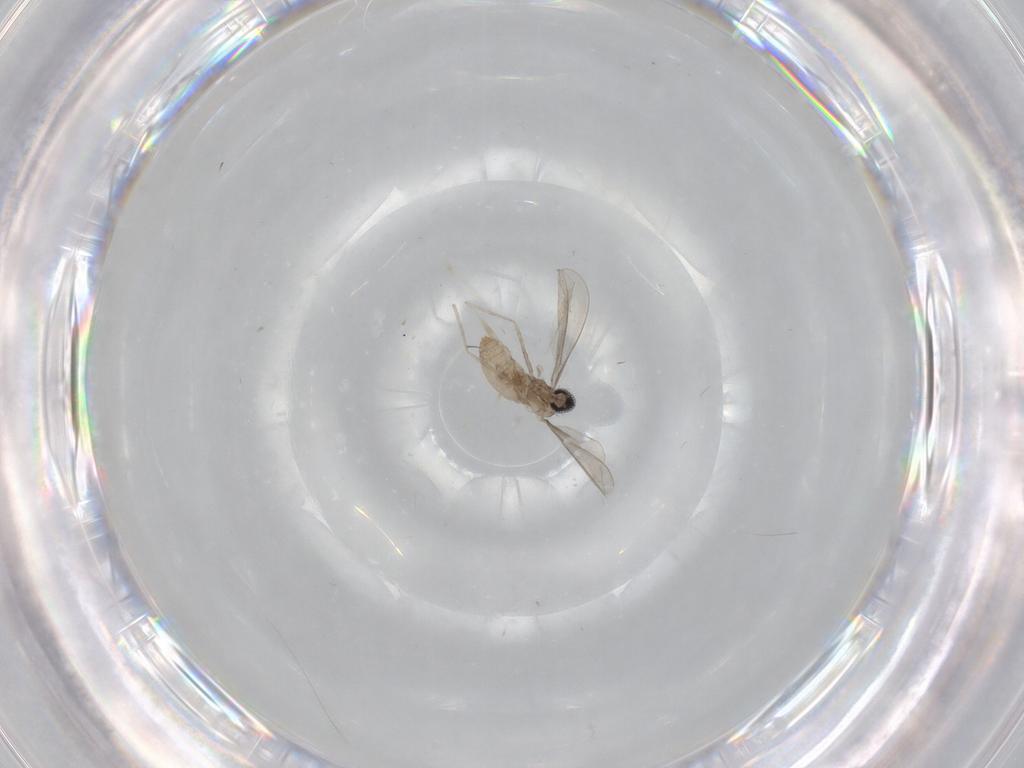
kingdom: Animalia
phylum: Arthropoda
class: Insecta
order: Diptera
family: Cecidomyiidae
